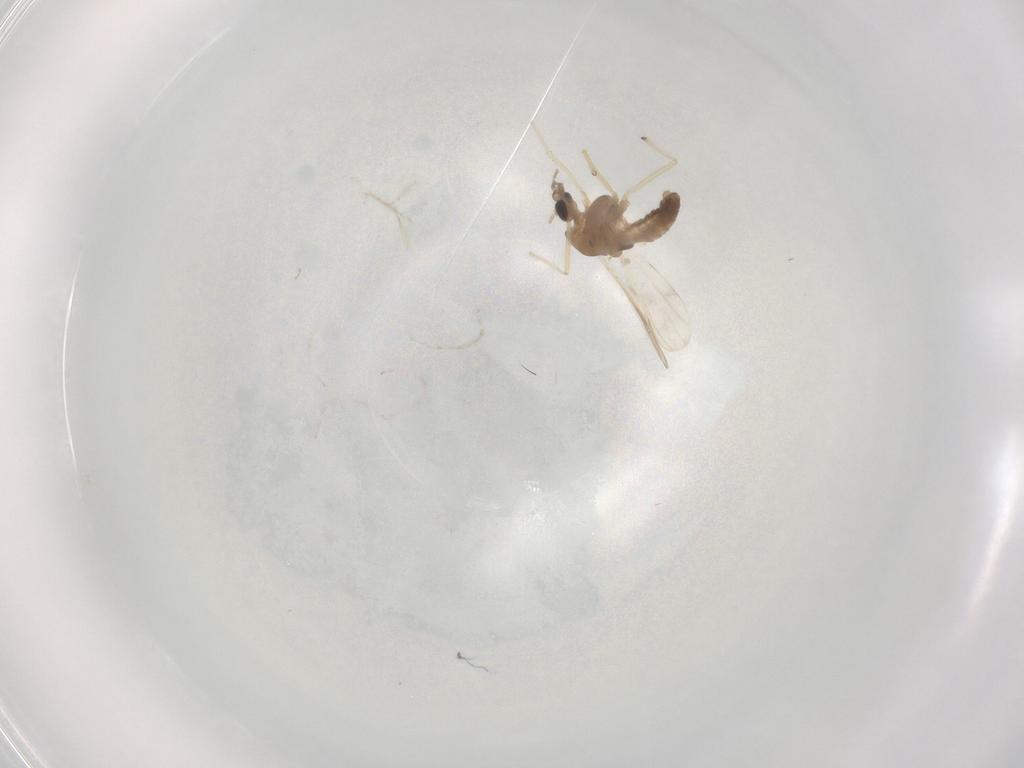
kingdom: Animalia
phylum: Arthropoda
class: Insecta
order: Diptera
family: Chironomidae
